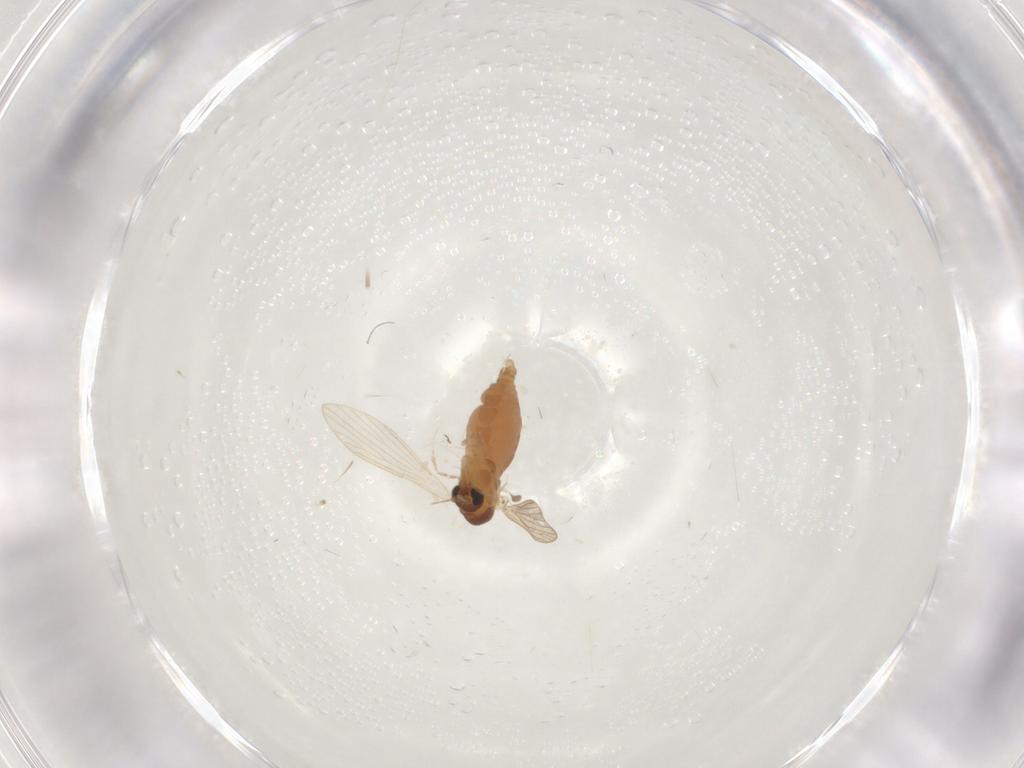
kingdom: Animalia
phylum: Arthropoda
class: Insecta
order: Diptera
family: Psychodidae
